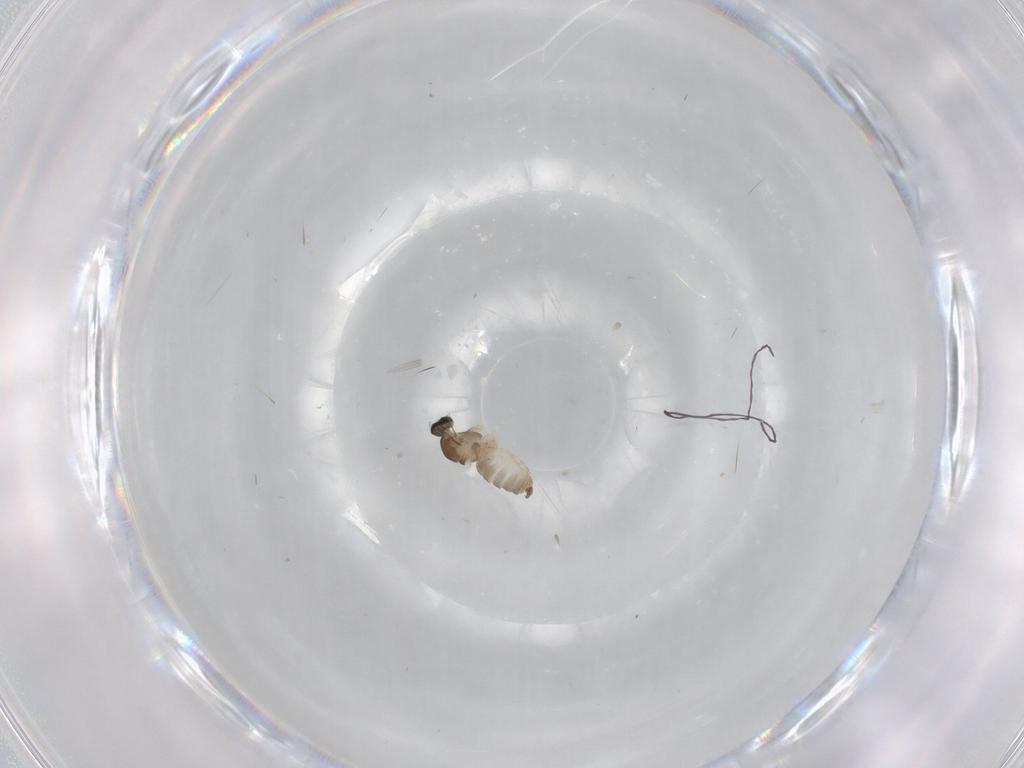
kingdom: Animalia
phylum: Arthropoda
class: Insecta
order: Diptera
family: Cecidomyiidae
